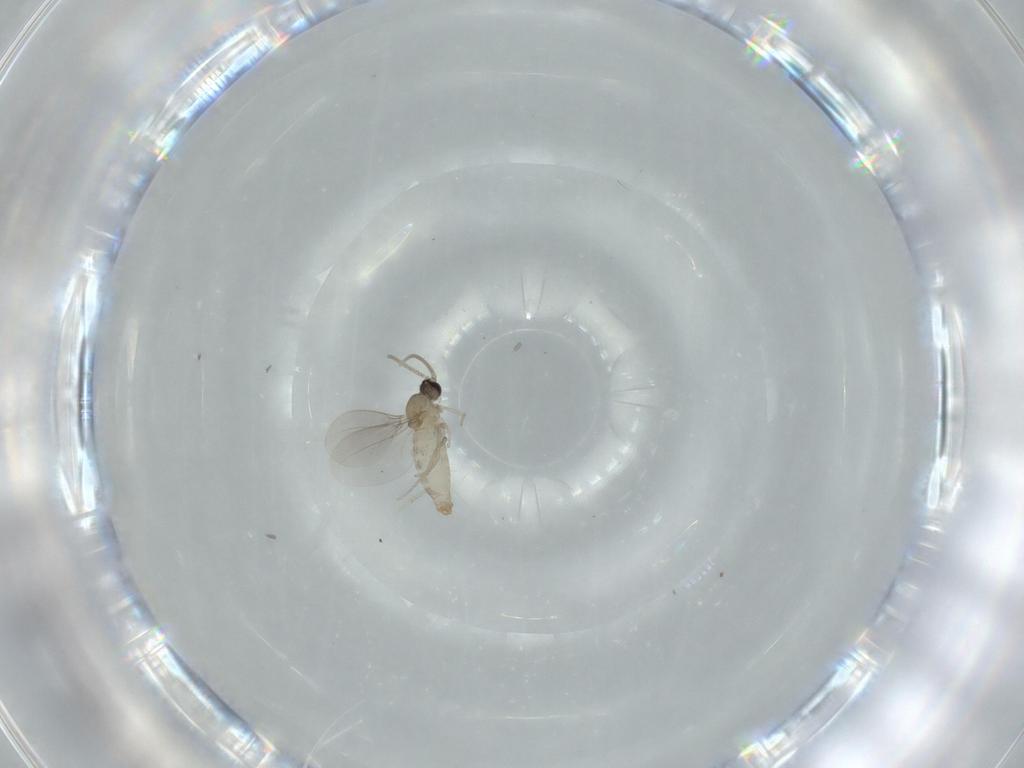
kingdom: Animalia
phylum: Arthropoda
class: Insecta
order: Diptera
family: Cecidomyiidae
